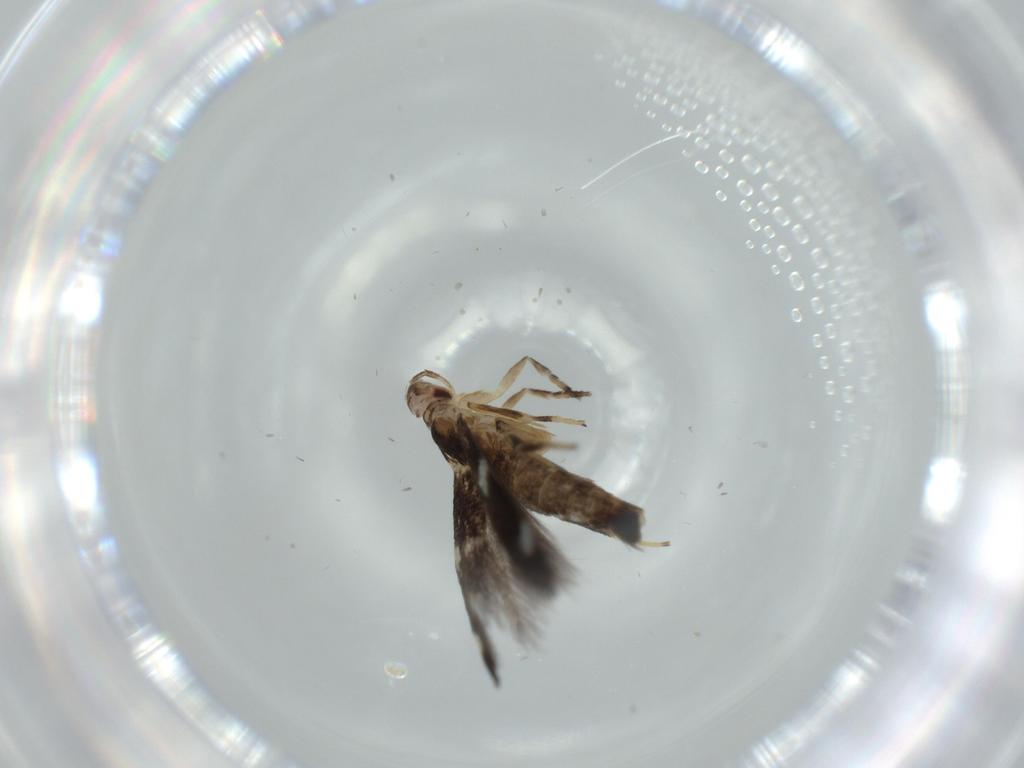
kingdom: Animalia
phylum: Arthropoda
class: Insecta
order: Lepidoptera
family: Cosmopterigidae
